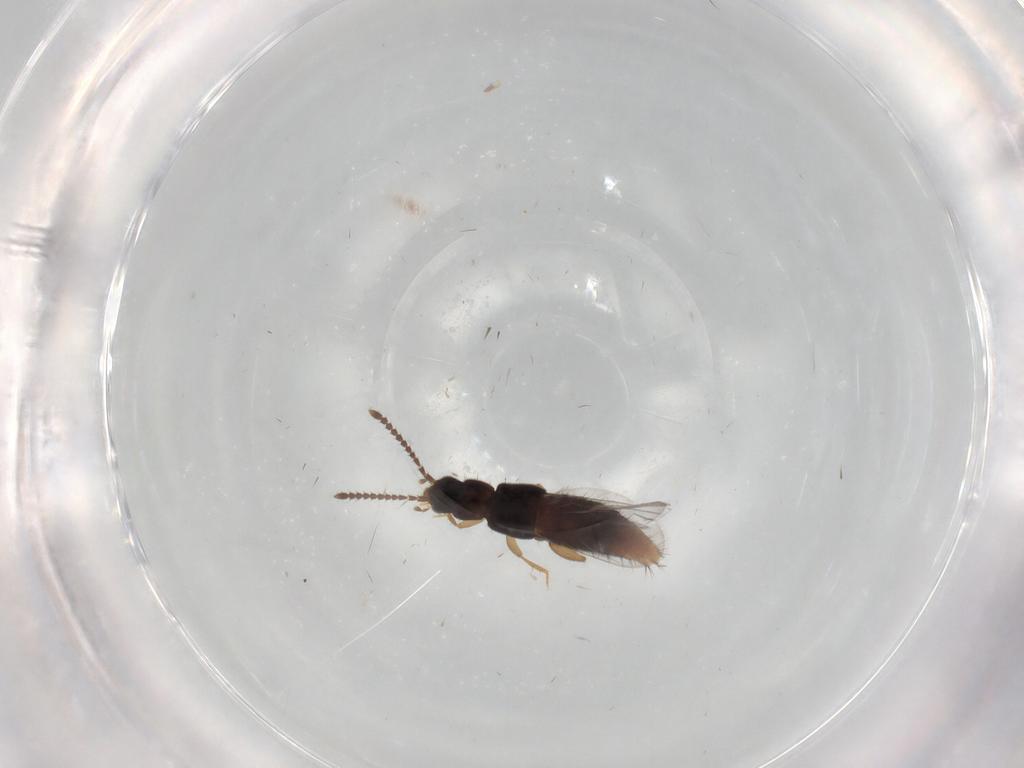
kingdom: Animalia
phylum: Arthropoda
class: Insecta
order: Coleoptera
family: Staphylinidae
